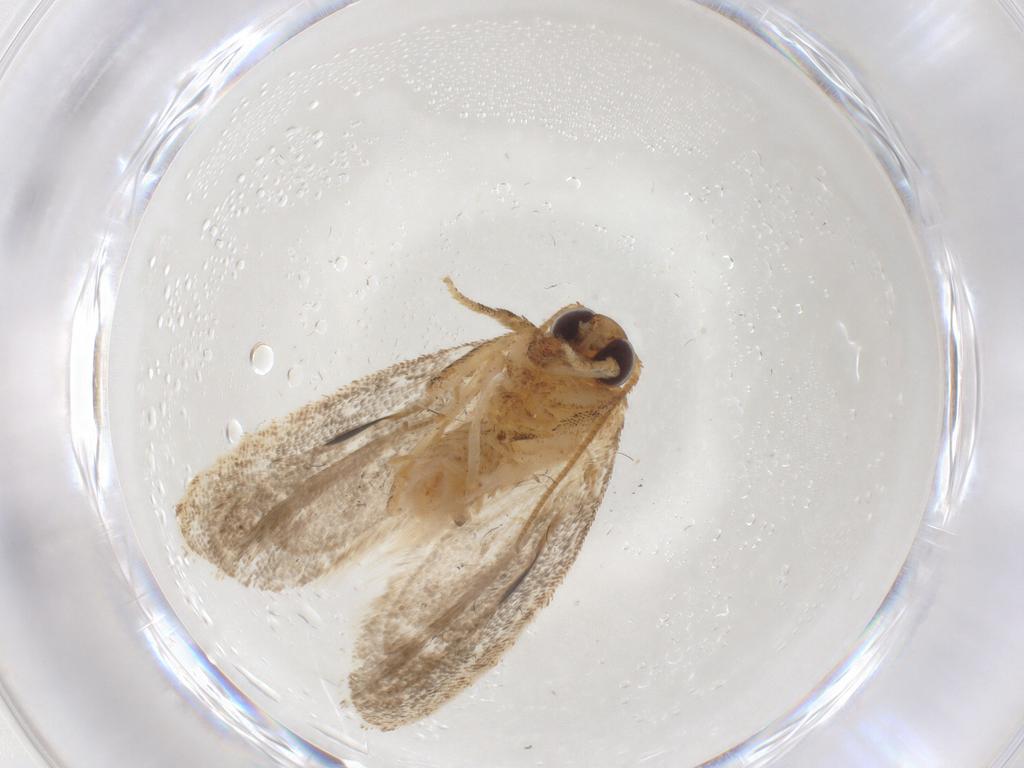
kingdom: Animalia
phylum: Arthropoda
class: Insecta
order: Lepidoptera
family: Tortricidae
